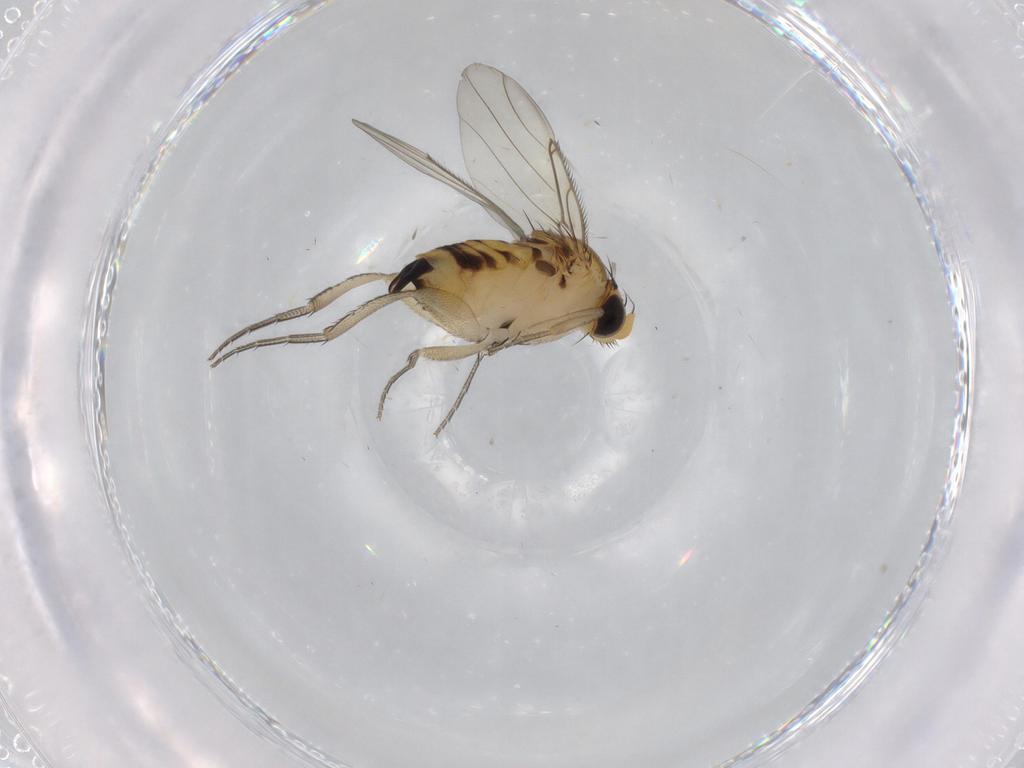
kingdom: Animalia
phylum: Arthropoda
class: Insecta
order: Diptera
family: Phoridae
